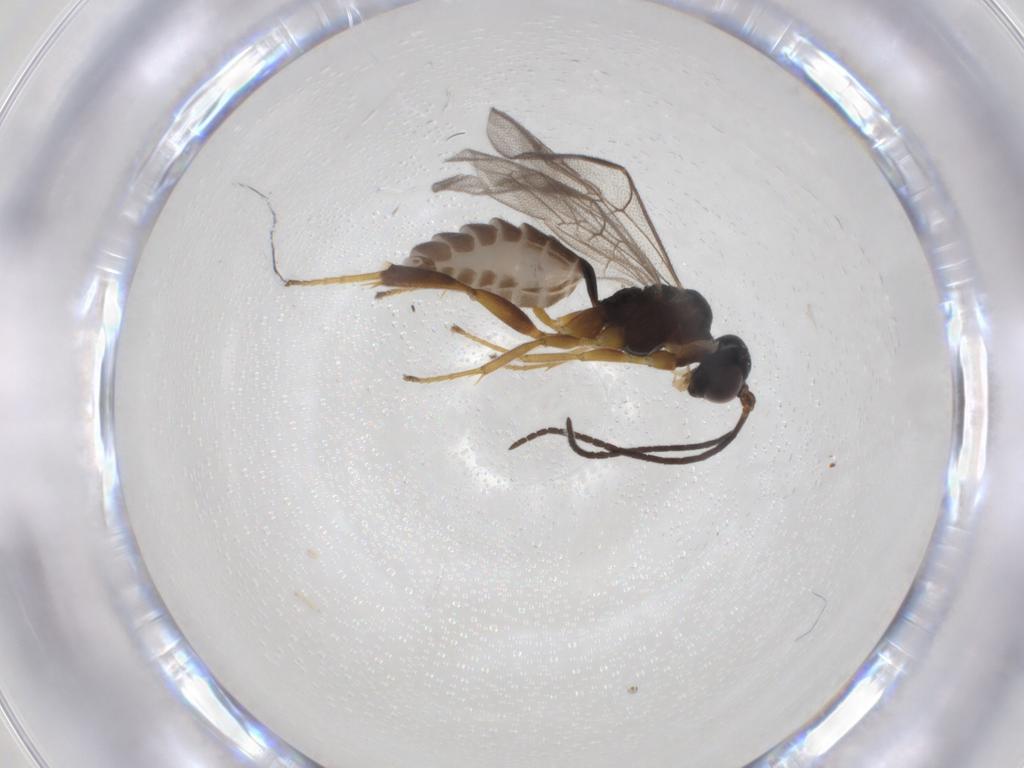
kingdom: Animalia
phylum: Arthropoda
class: Insecta
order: Hymenoptera
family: Ichneumonidae
